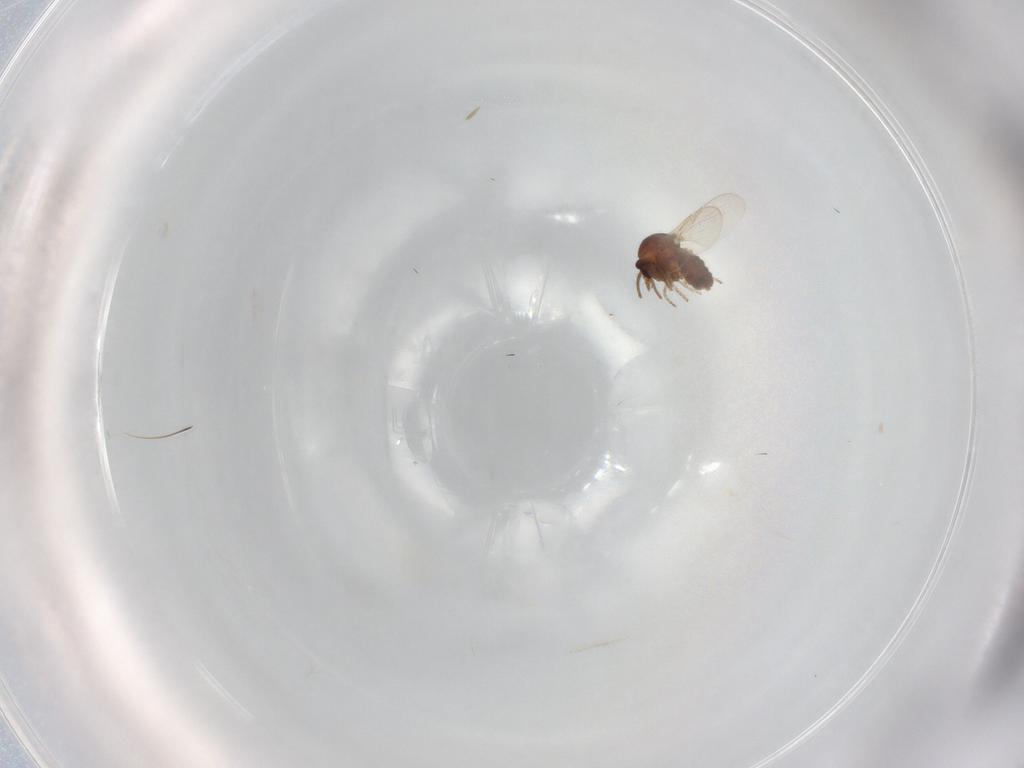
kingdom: Animalia
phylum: Arthropoda
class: Insecta
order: Diptera
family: Ceratopogonidae
